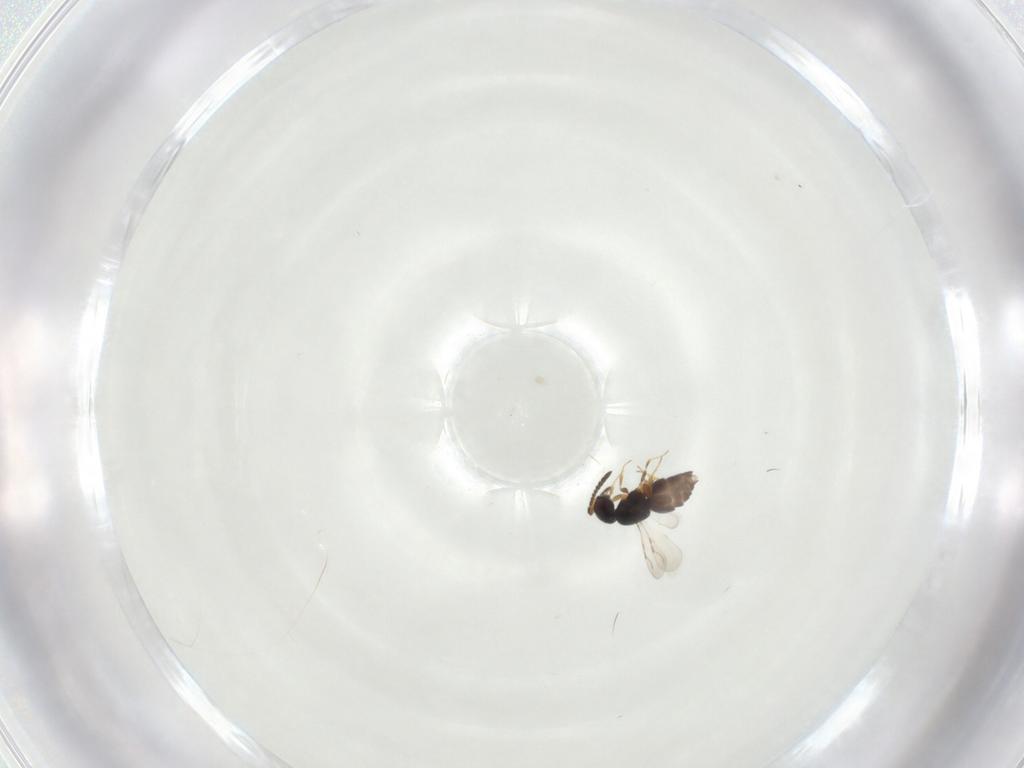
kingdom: Animalia
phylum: Arthropoda
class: Insecta
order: Hymenoptera
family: Ceraphronidae
